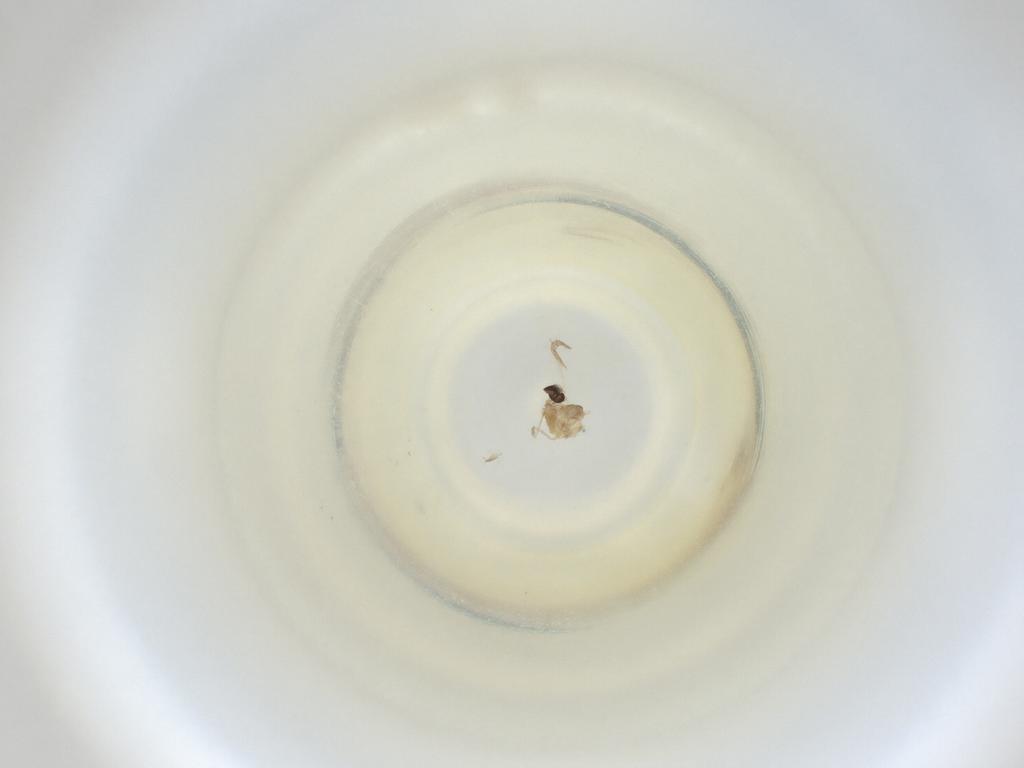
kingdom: Animalia
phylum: Arthropoda
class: Insecta
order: Diptera
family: Cecidomyiidae
